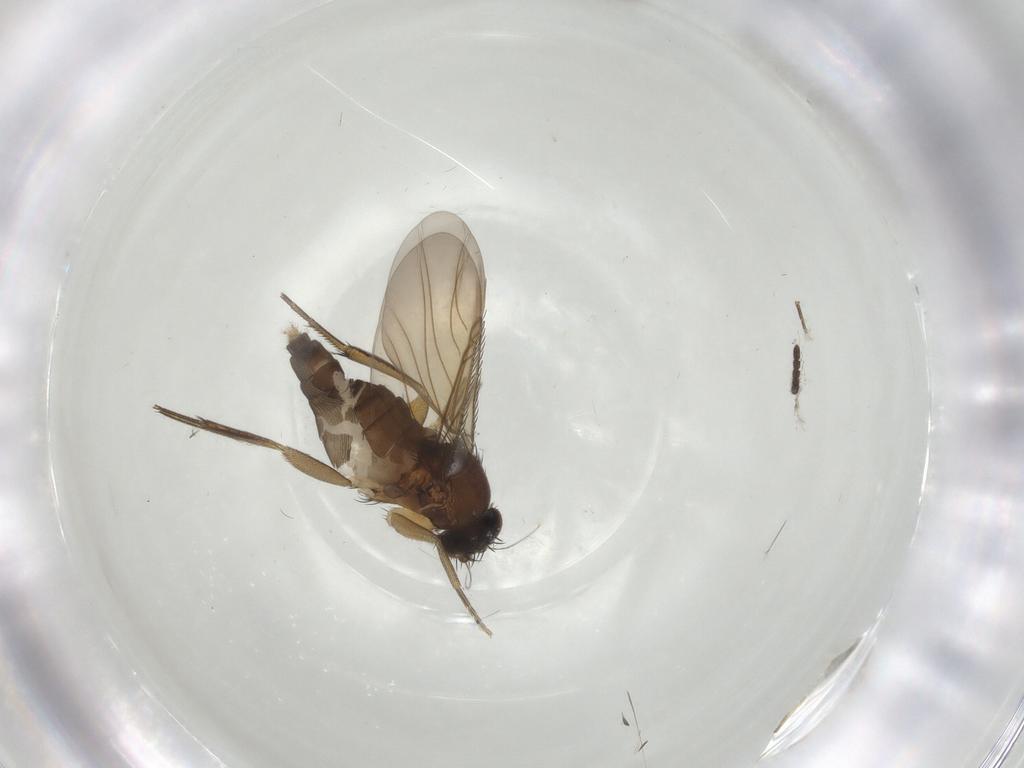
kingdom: Animalia
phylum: Arthropoda
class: Insecta
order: Diptera
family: Phoridae
